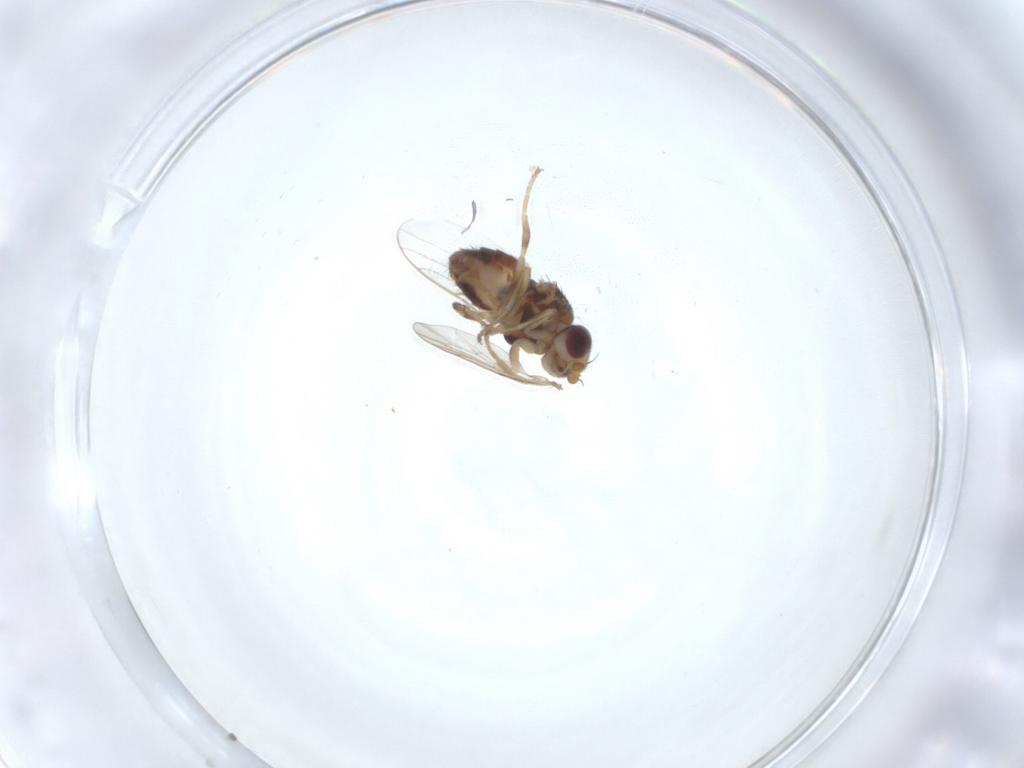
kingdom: Animalia
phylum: Arthropoda
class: Insecta
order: Diptera
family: Chloropidae
